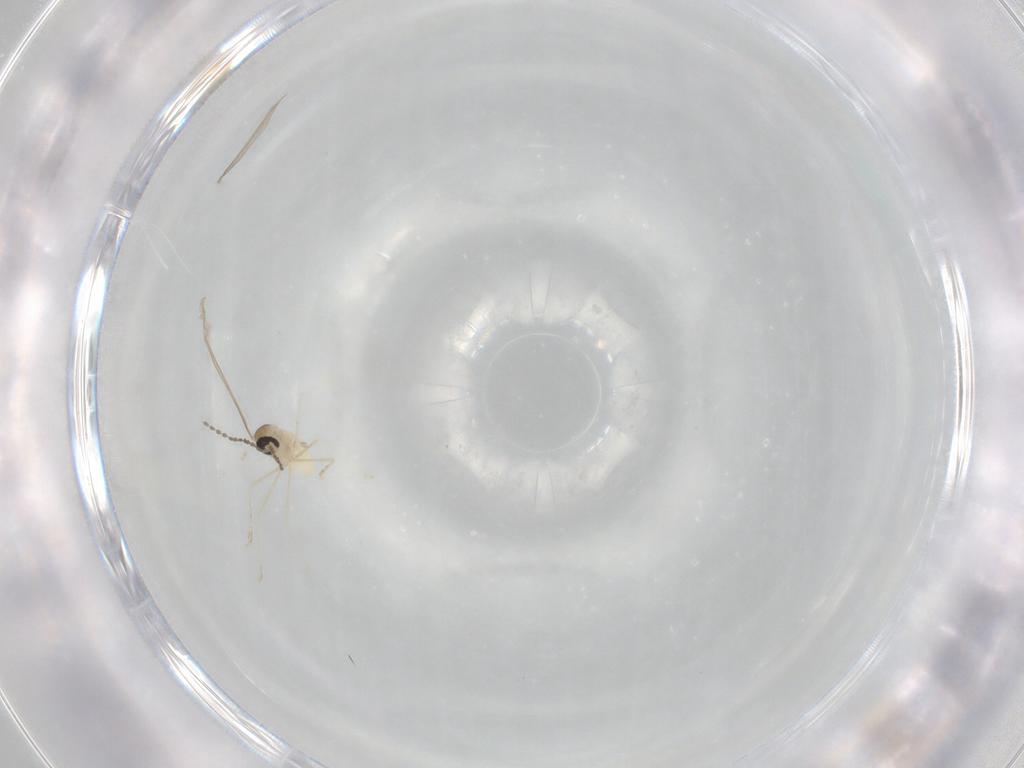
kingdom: Animalia
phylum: Arthropoda
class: Insecta
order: Diptera
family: Cecidomyiidae
